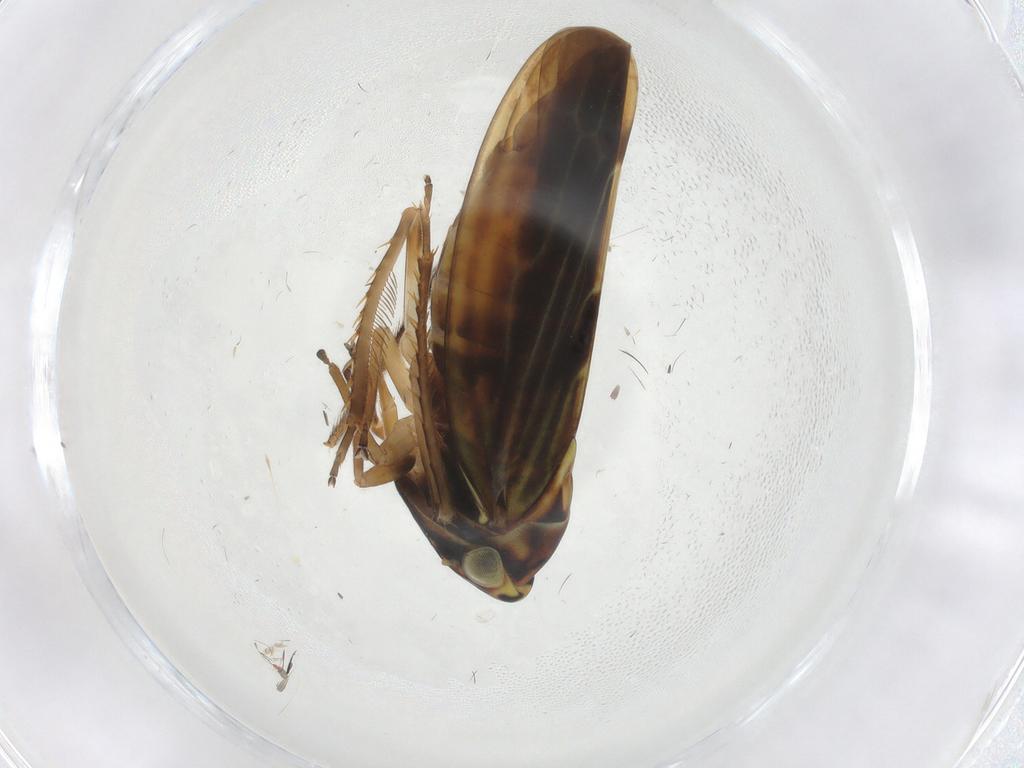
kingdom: Animalia
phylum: Arthropoda
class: Insecta
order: Hemiptera
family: Cicadellidae
